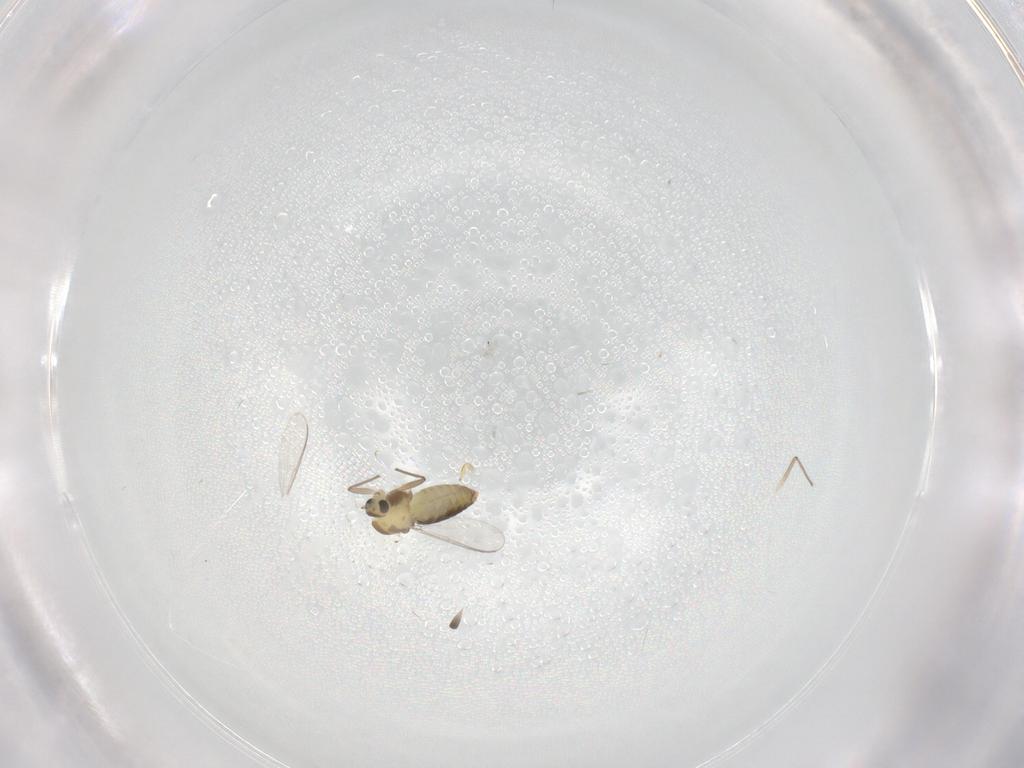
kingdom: Animalia
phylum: Arthropoda
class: Insecta
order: Diptera
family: Chironomidae
